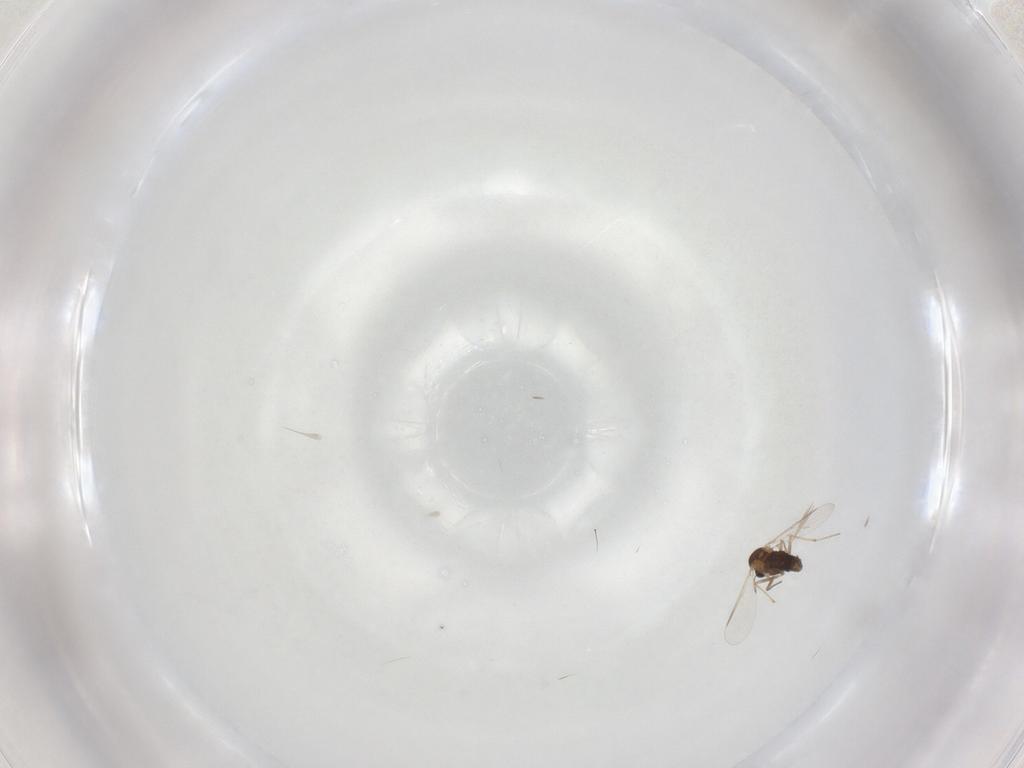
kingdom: Animalia
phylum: Arthropoda
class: Insecta
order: Diptera
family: Chironomidae
